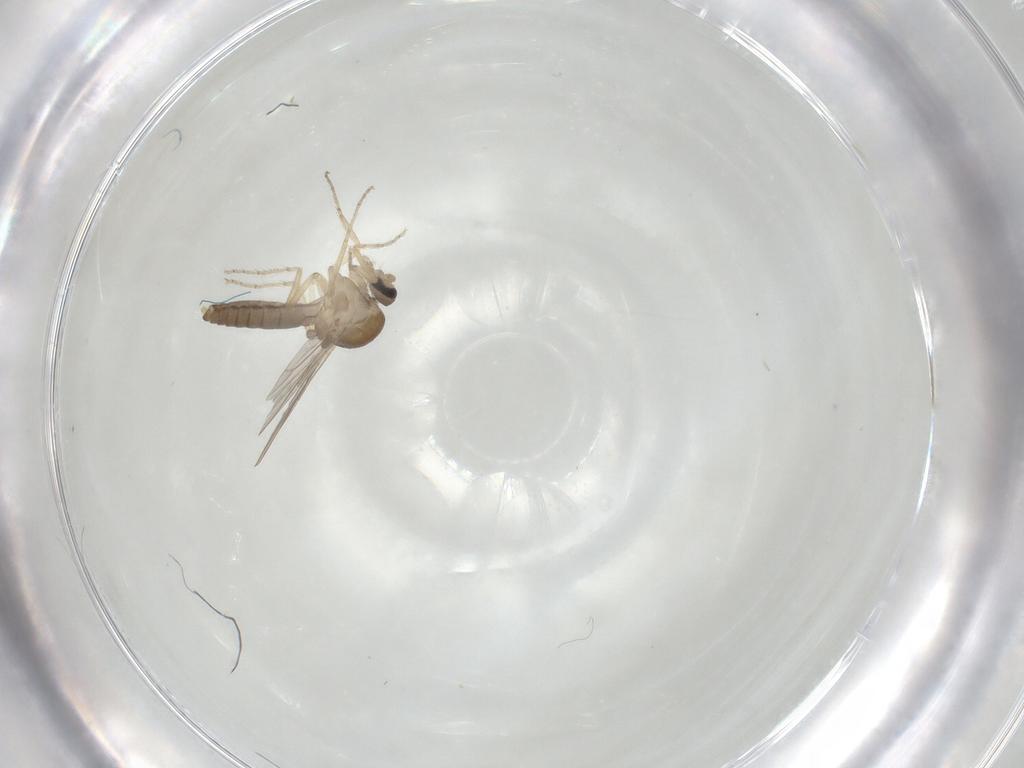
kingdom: Animalia
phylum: Arthropoda
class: Insecta
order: Diptera
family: Ceratopogonidae
